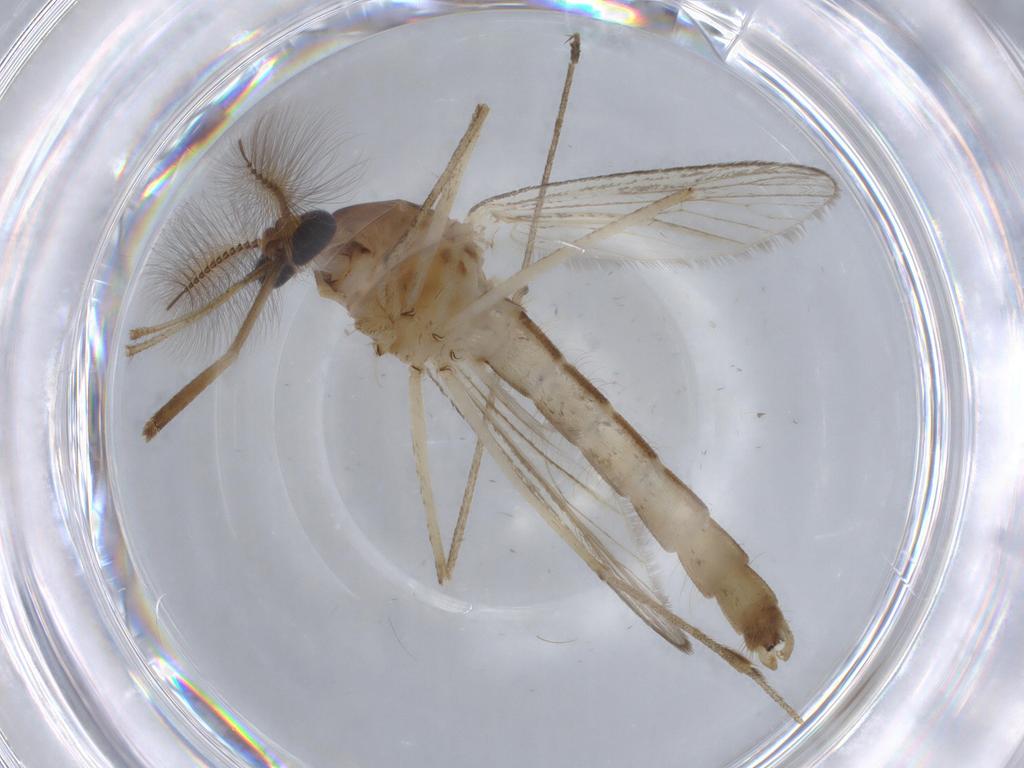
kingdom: Animalia
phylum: Arthropoda
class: Insecta
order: Diptera
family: Culicidae
